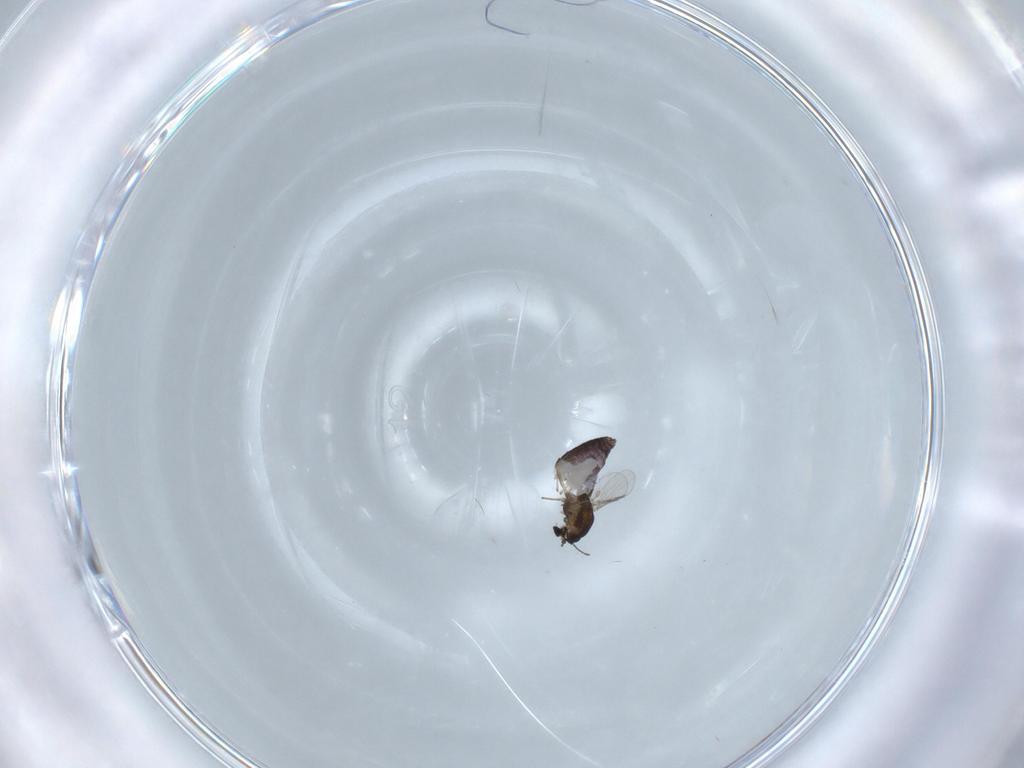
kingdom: Animalia
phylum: Arthropoda
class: Insecta
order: Diptera
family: Chironomidae
